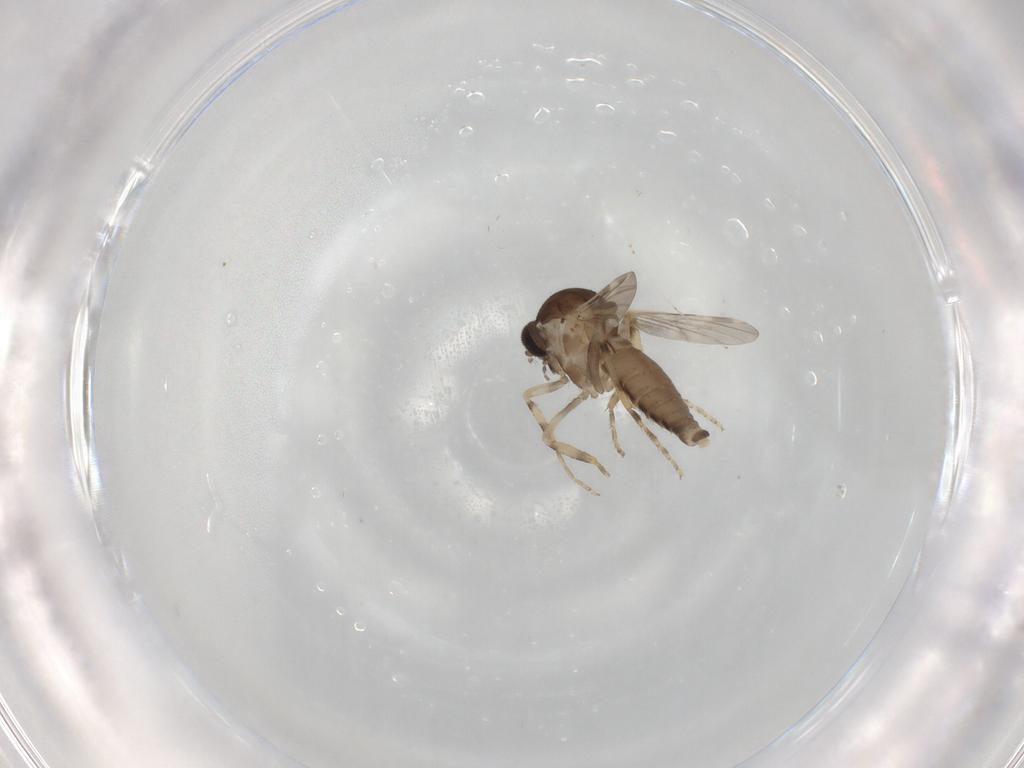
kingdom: Animalia
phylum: Arthropoda
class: Insecta
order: Diptera
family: Ceratopogonidae
